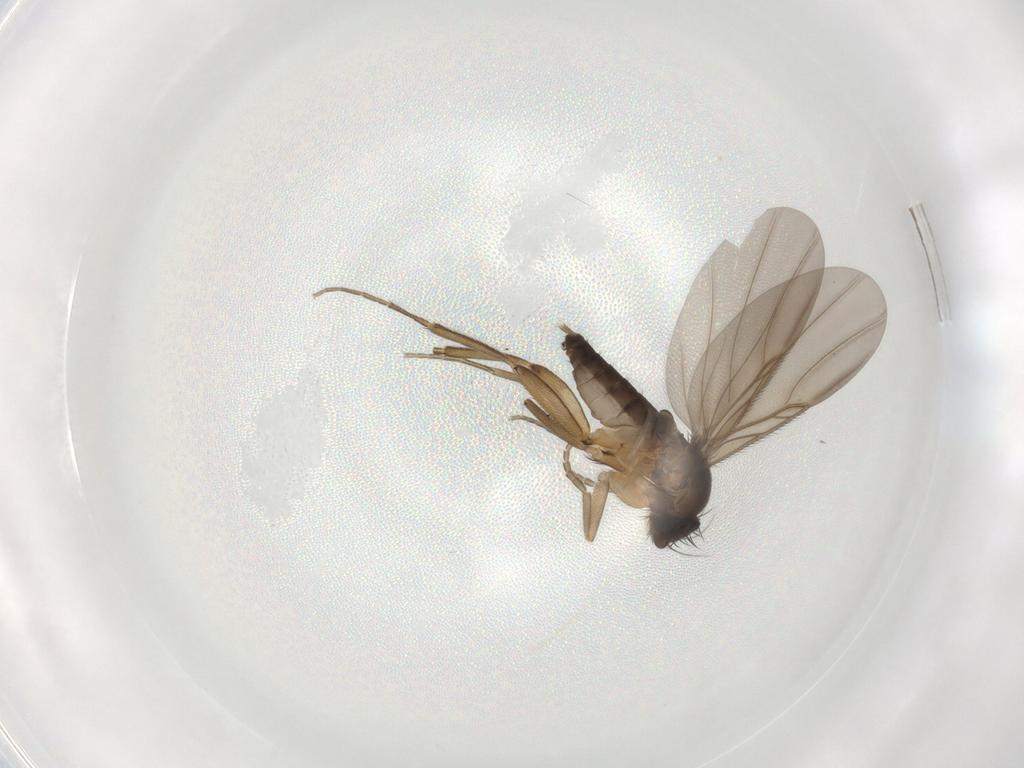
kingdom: Animalia
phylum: Arthropoda
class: Insecta
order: Diptera
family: Phoridae
